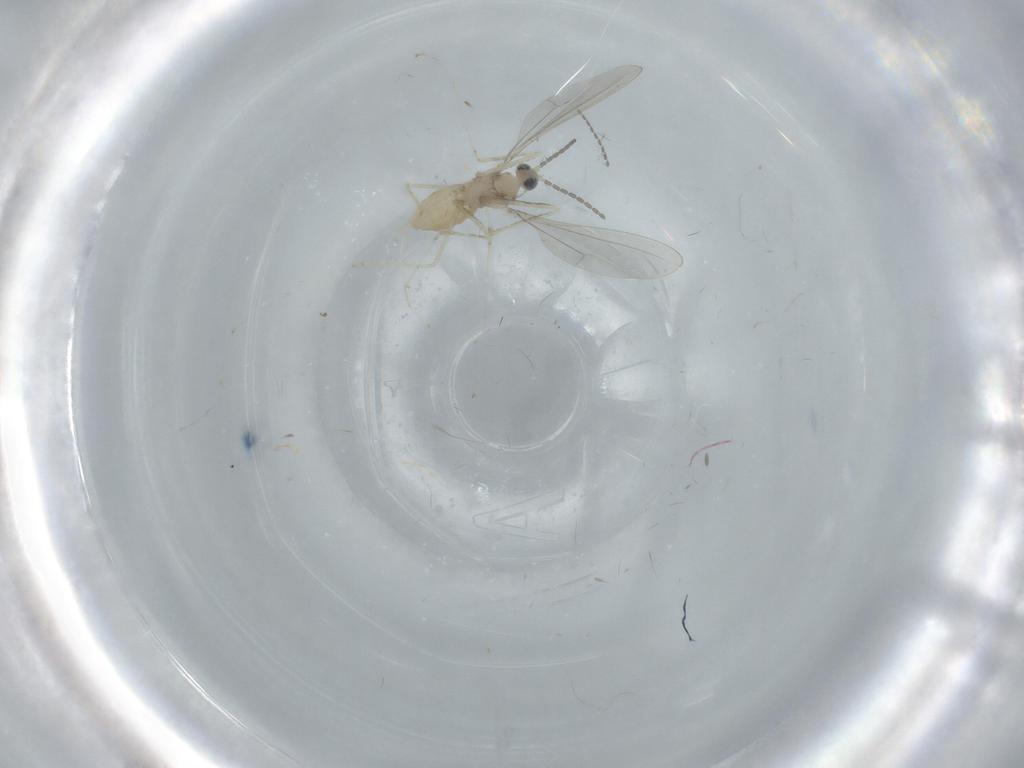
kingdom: Animalia
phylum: Arthropoda
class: Insecta
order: Diptera
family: Cecidomyiidae
